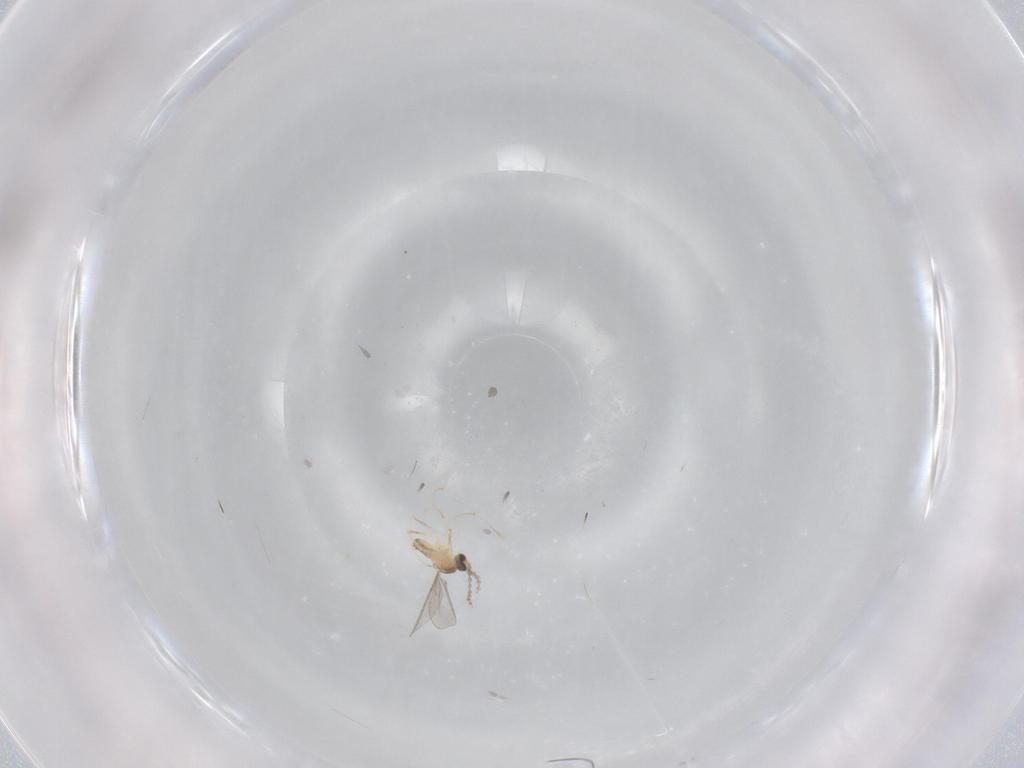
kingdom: Animalia
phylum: Arthropoda
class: Insecta
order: Diptera
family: Cecidomyiidae
